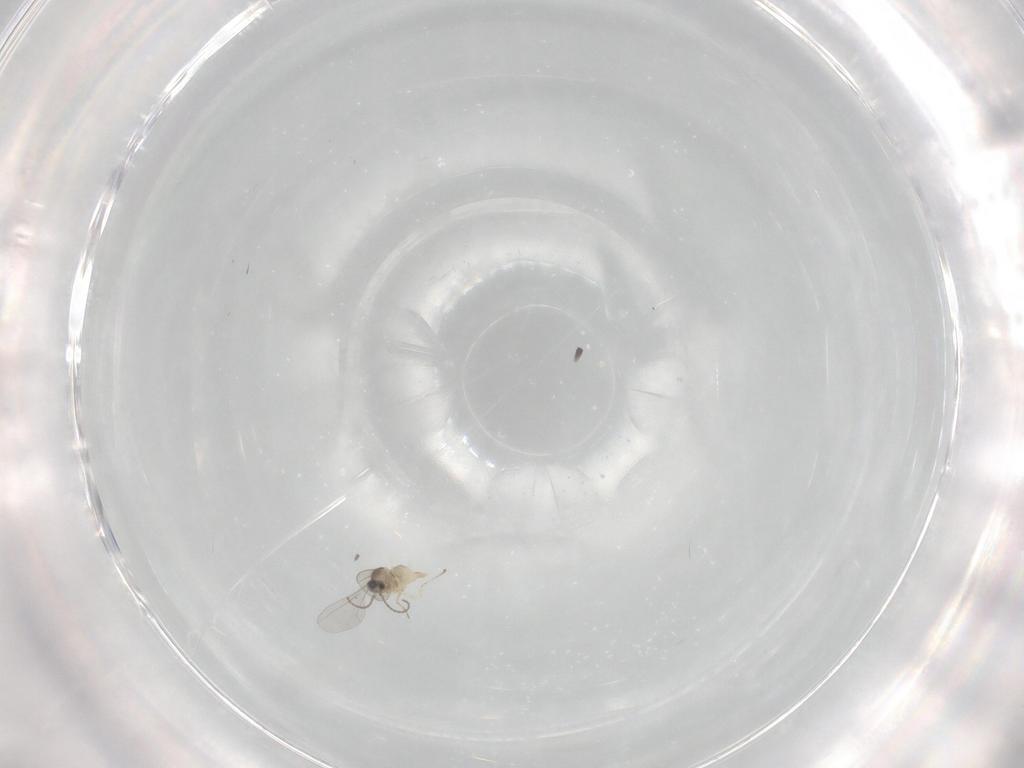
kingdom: Animalia
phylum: Arthropoda
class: Insecta
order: Diptera
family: Cecidomyiidae
